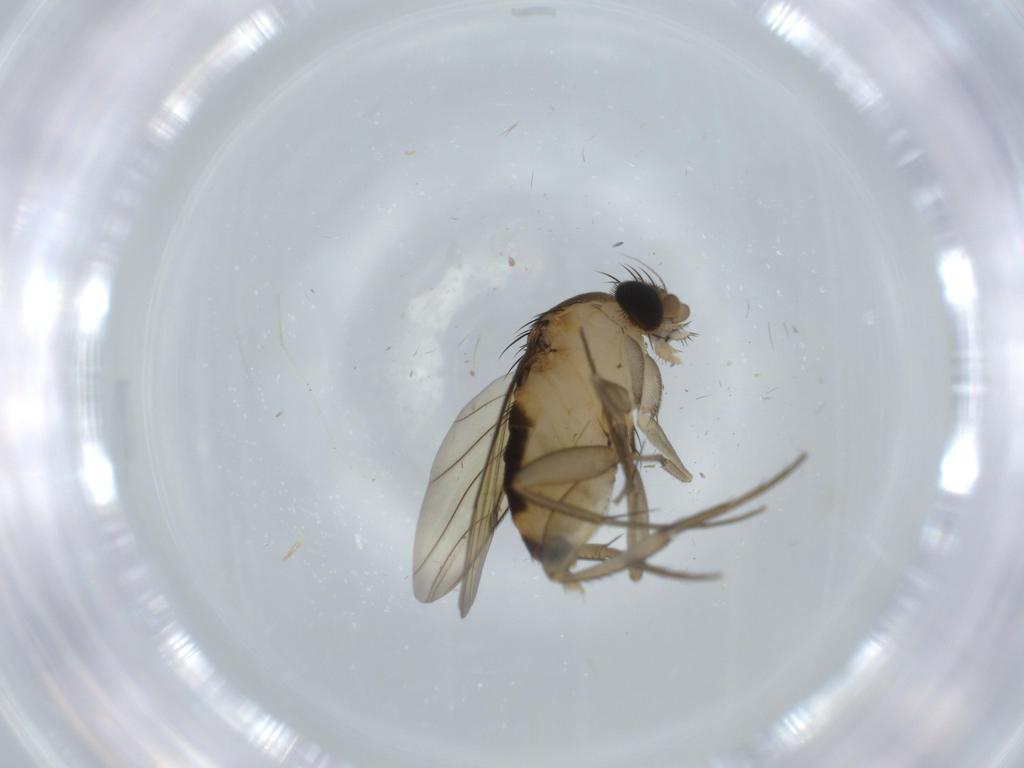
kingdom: Animalia
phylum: Arthropoda
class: Insecta
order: Diptera
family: Phoridae
